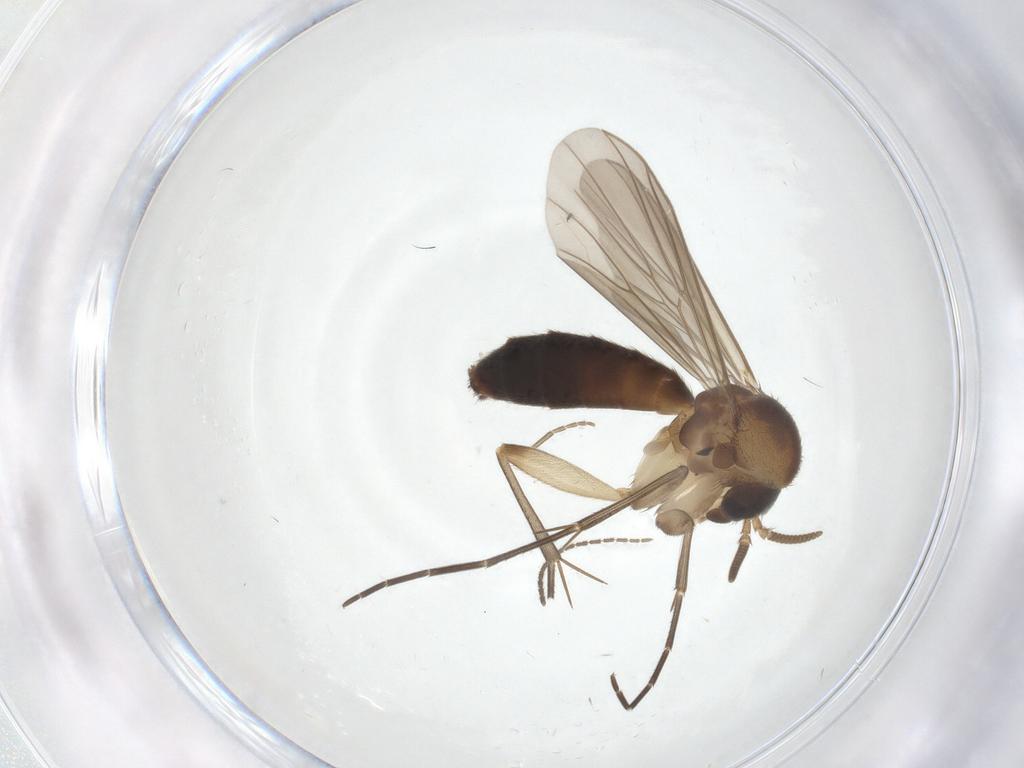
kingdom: Animalia
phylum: Arthropoda
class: Insecta
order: Diptera
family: Mycetophilidae
